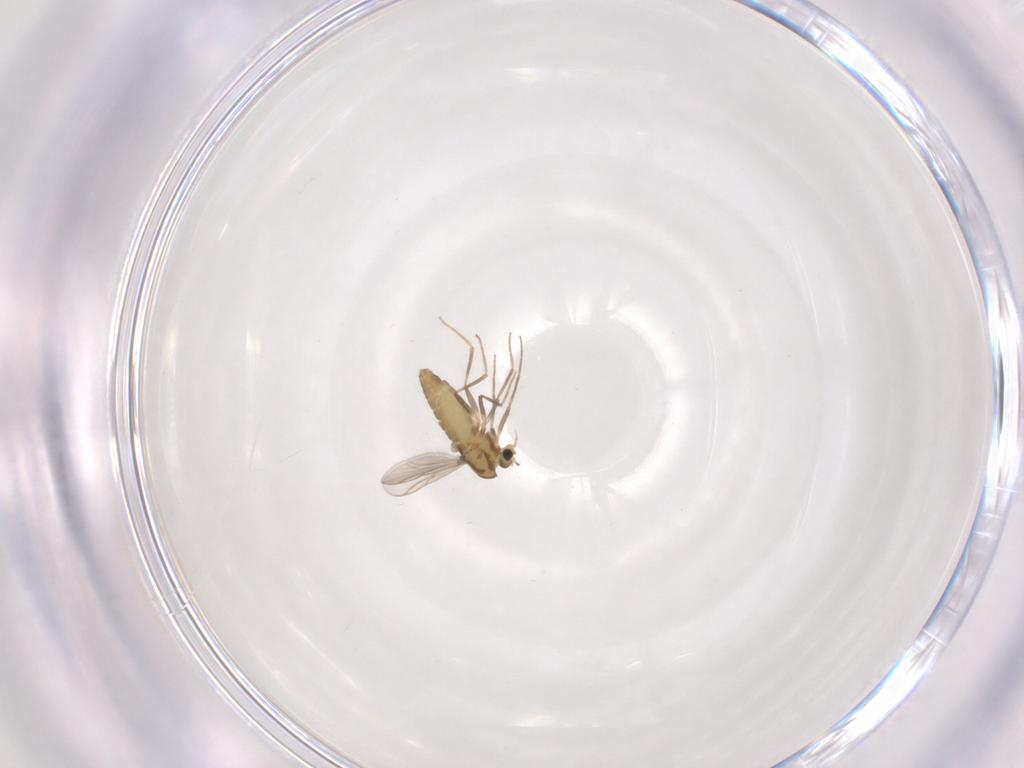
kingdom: Animalia
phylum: Arthropoda
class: Insecta
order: Diptera
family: Chironomidae
